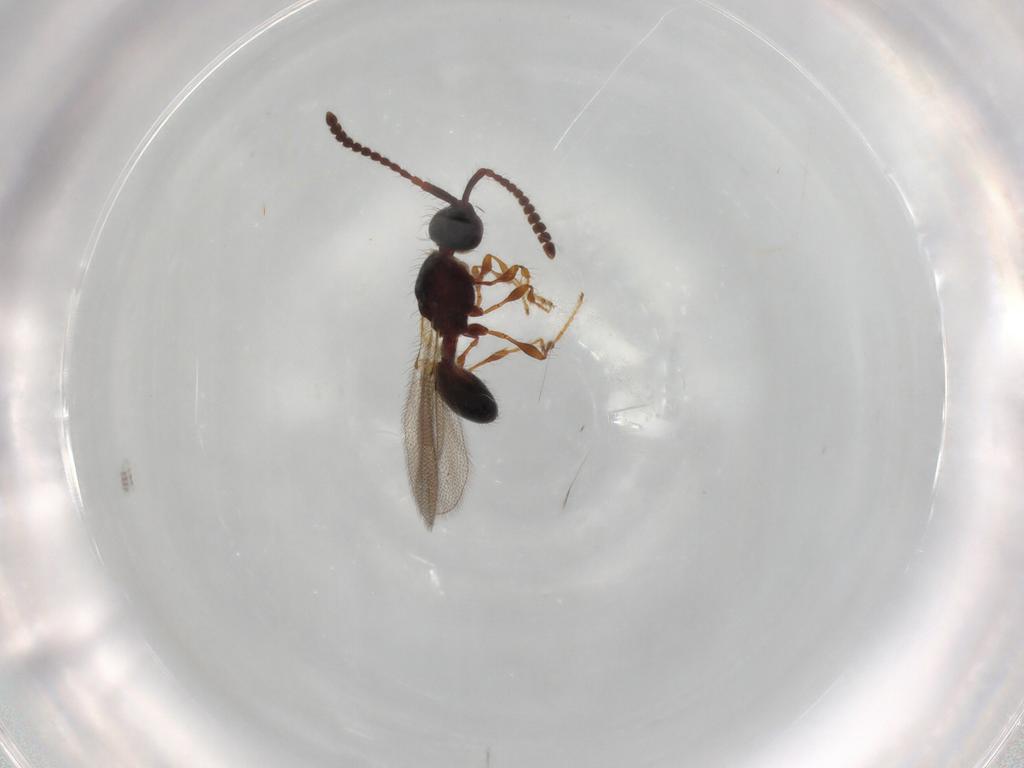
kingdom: Animalia
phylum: Arthropoda
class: Insecta
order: Hymenoptera
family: Diapriidae
